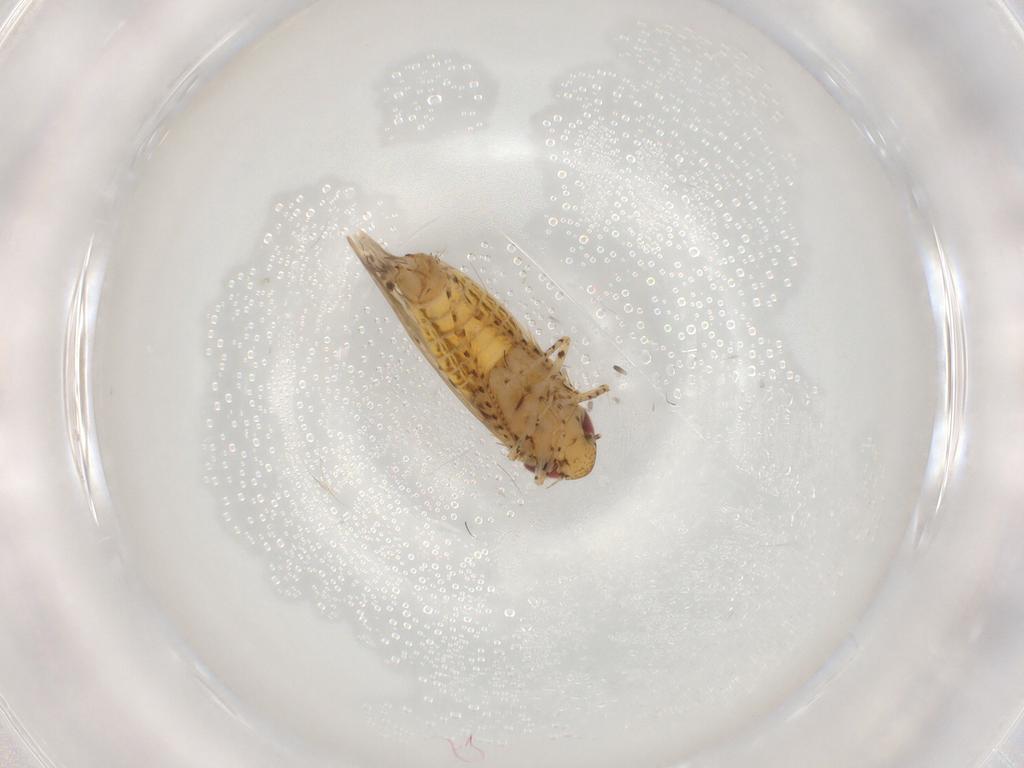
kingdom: Animalia
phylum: Arthropoda
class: Insecta
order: Hemiptera
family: Cicadellidae
